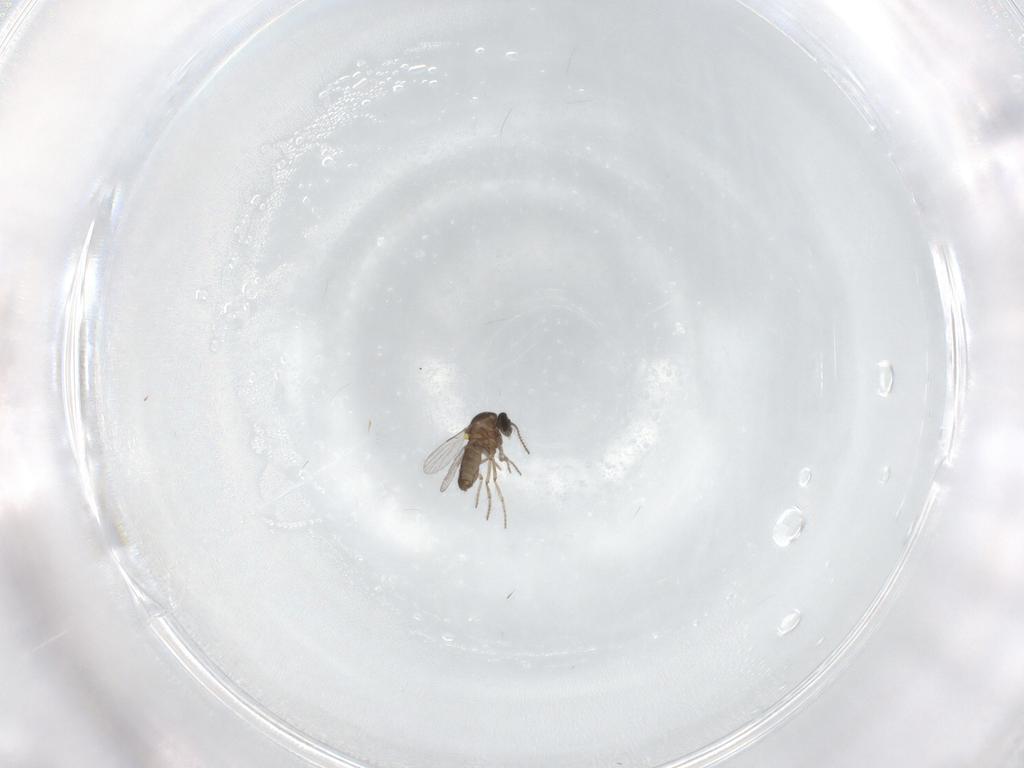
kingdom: Animalia
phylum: Arthropoda
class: Insecta
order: Diptera
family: Ceratopogonidae
